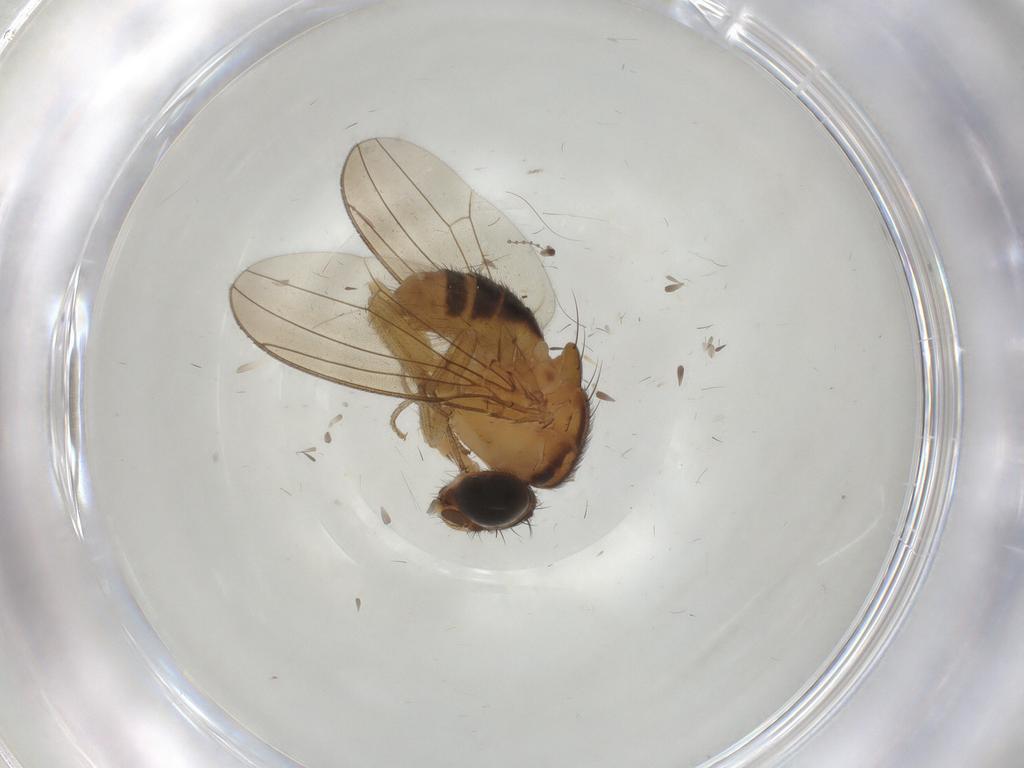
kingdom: Animalia
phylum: Arthropoda
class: Insecta
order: Diptera
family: Drosophilidae
